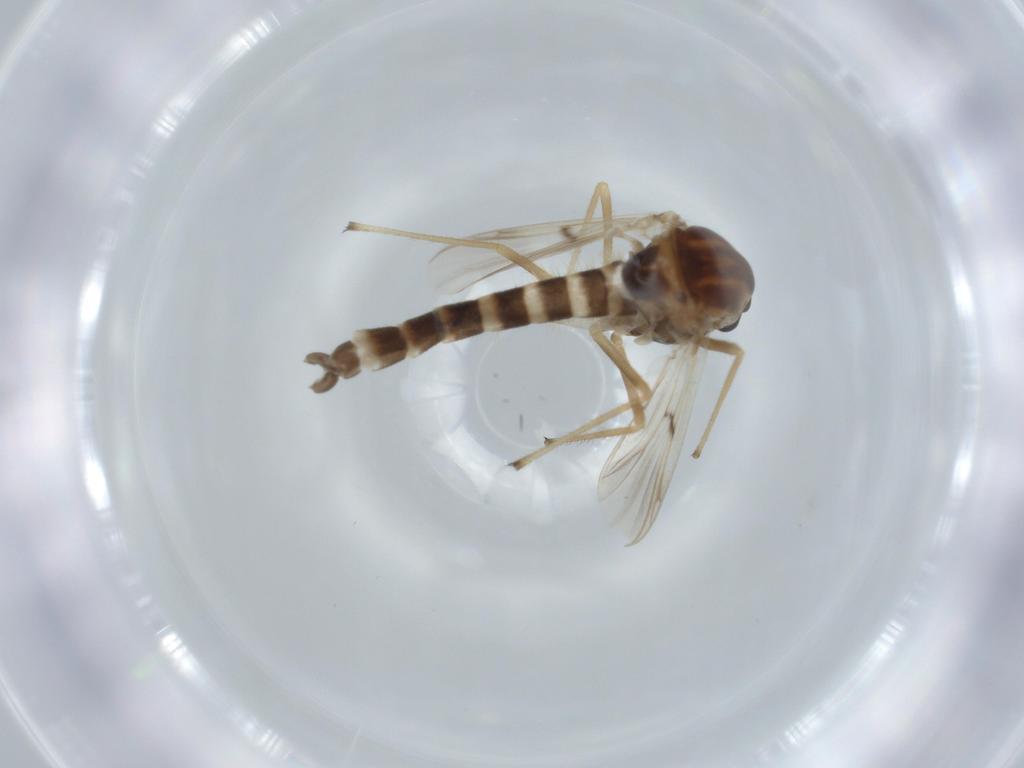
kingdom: Animalia
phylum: Arthropoda
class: Insecta
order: Diptera
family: Chironomidae
